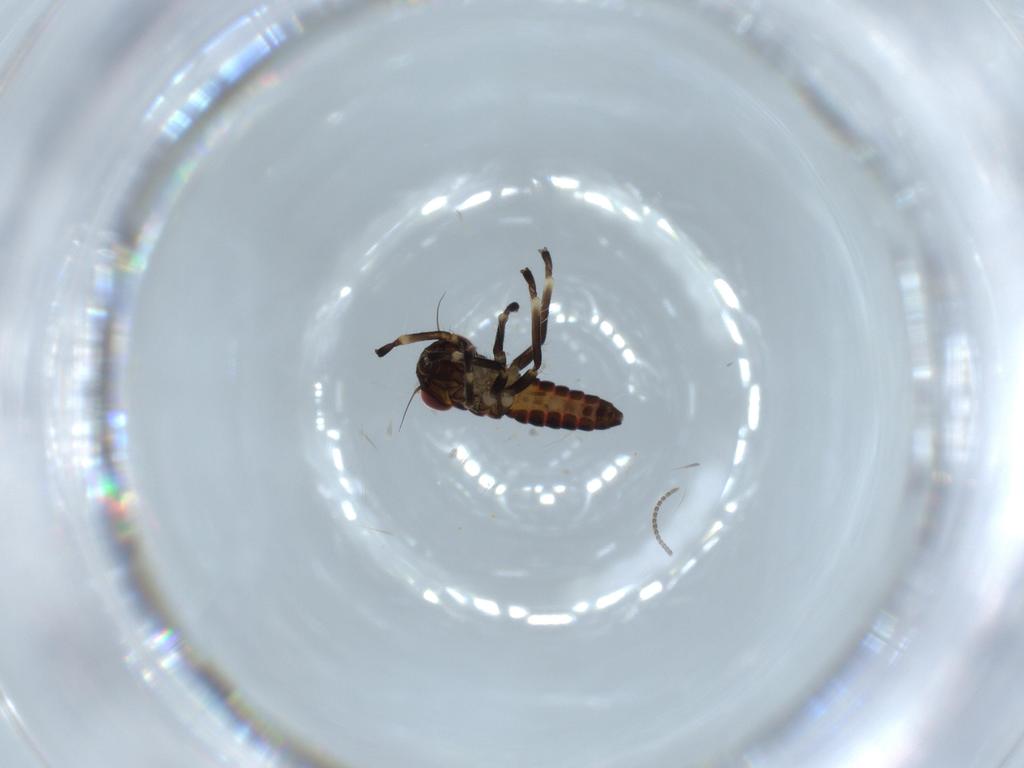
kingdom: Animalia
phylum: Arthropoda
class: Insecta
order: Hemiptera
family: Cicadellidae
